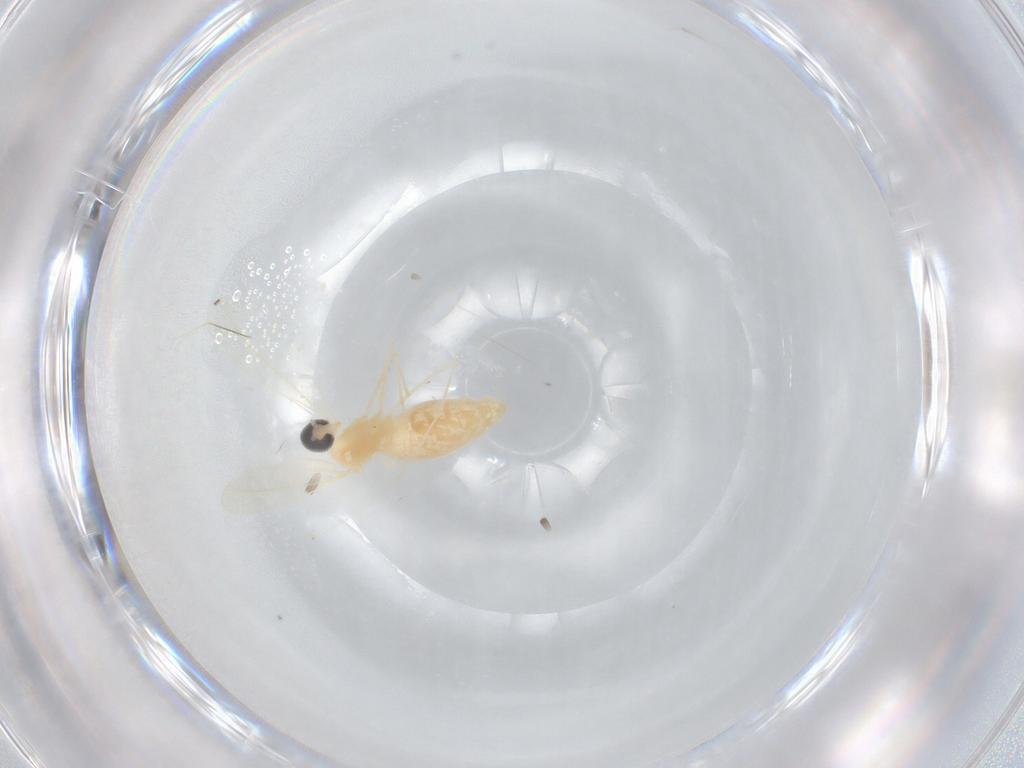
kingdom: Animalia
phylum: Arthropoda
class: Insecta
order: Diptera
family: Cecidomyiidae
